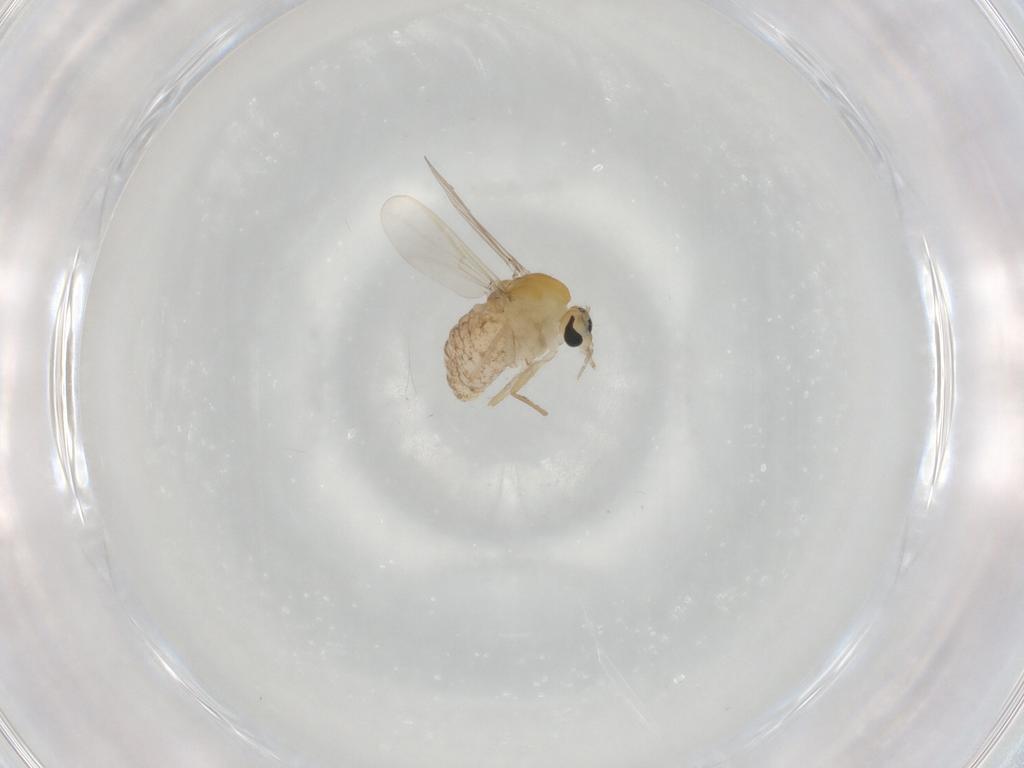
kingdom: Animalia
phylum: Arthropoda
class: Insecta
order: Diptera
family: Chironomidae
